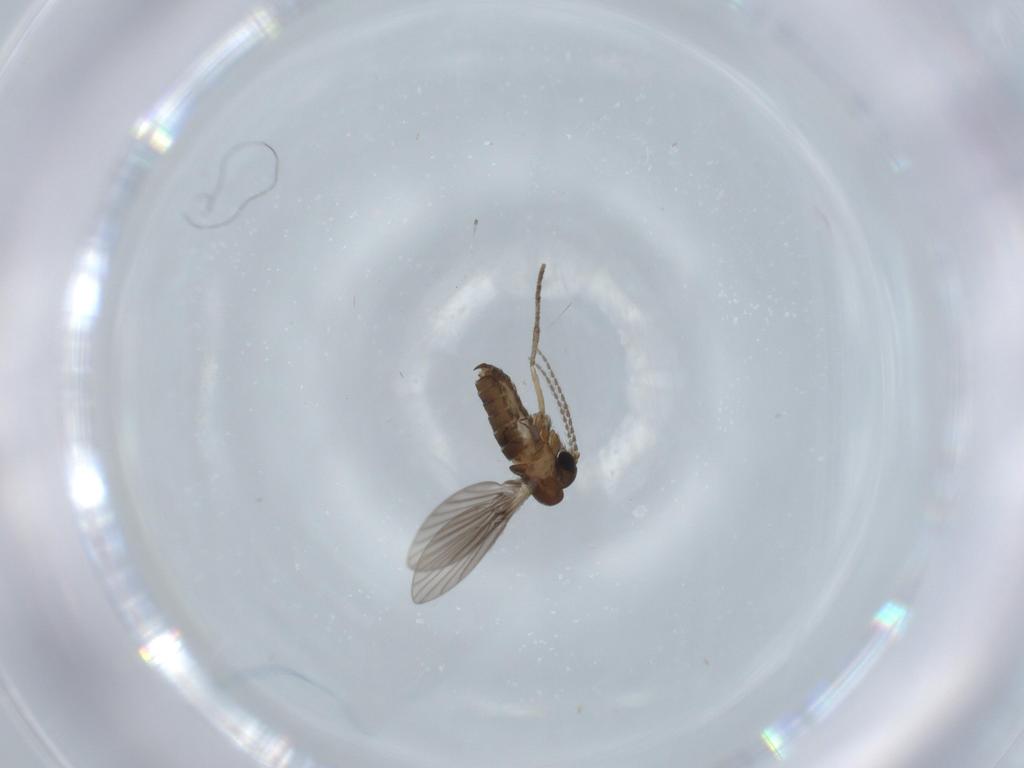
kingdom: Animalia
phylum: Arthropoda
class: Insecta
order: Diptera
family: Cecidomyiidae
